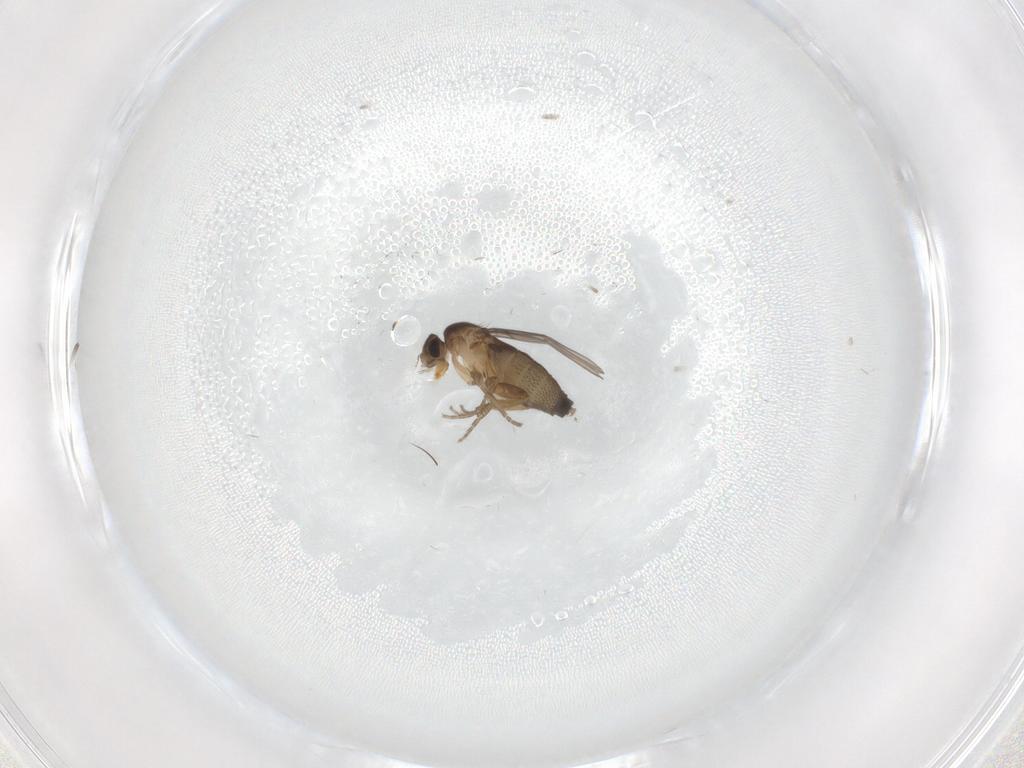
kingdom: Animalia
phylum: Arthropoda
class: Insecta
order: Diptera
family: Phoridae
